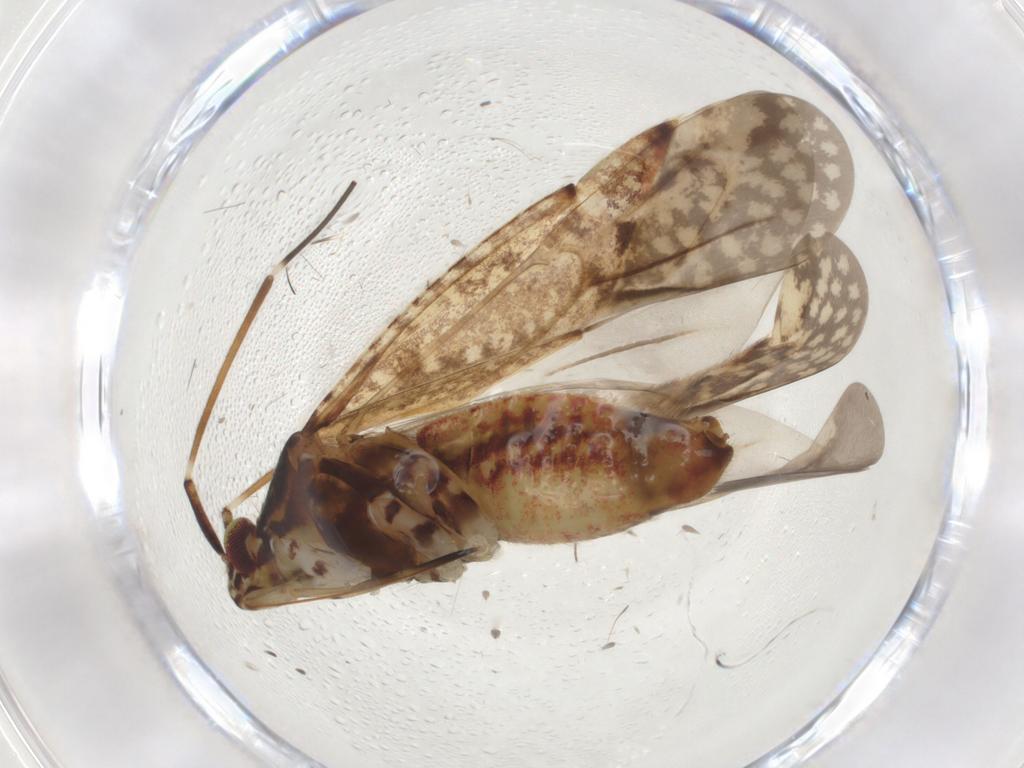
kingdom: Animalia
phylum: Arthropoda
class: Insecta
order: Hemiptera
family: Miridae
